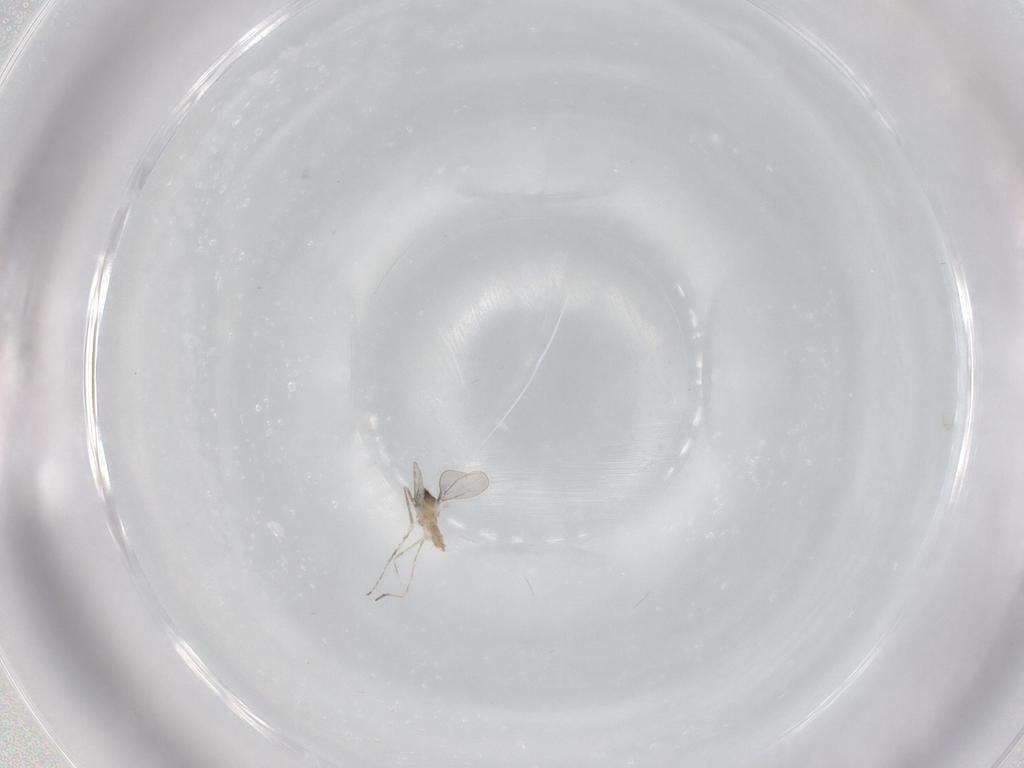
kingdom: Animalia
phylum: Arthropoda
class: Insecta
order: Diptera
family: Cecidomyiidae
